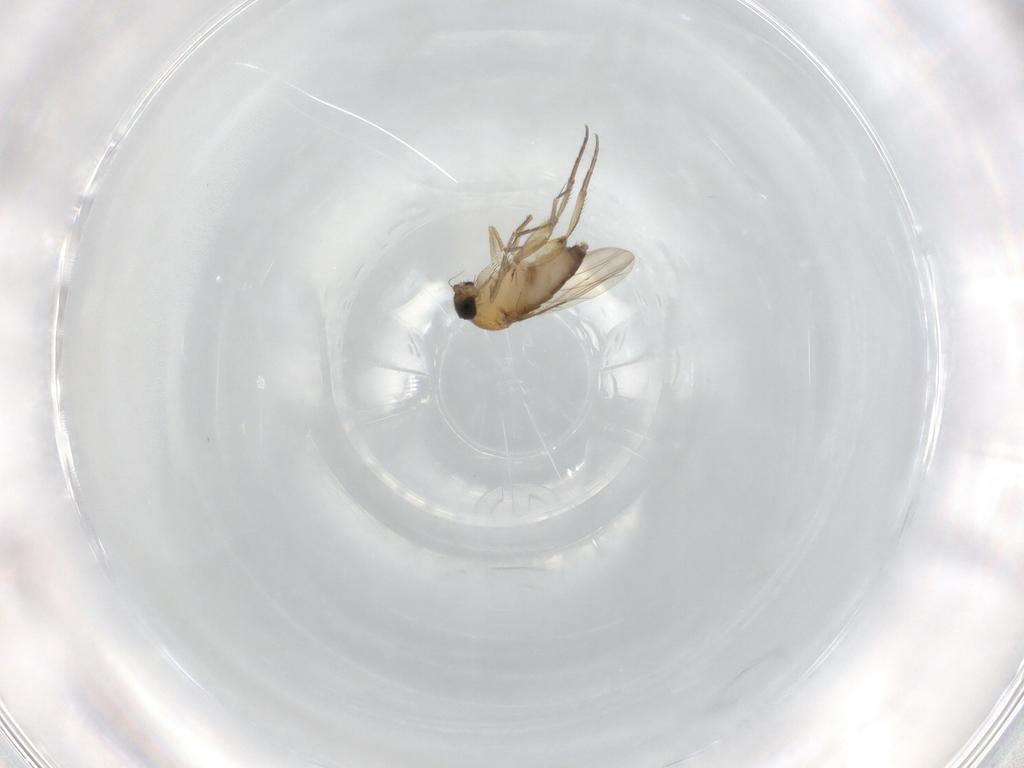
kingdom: Animalia
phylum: Arthropoda
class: Insecta
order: Diptera
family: Phoridae
